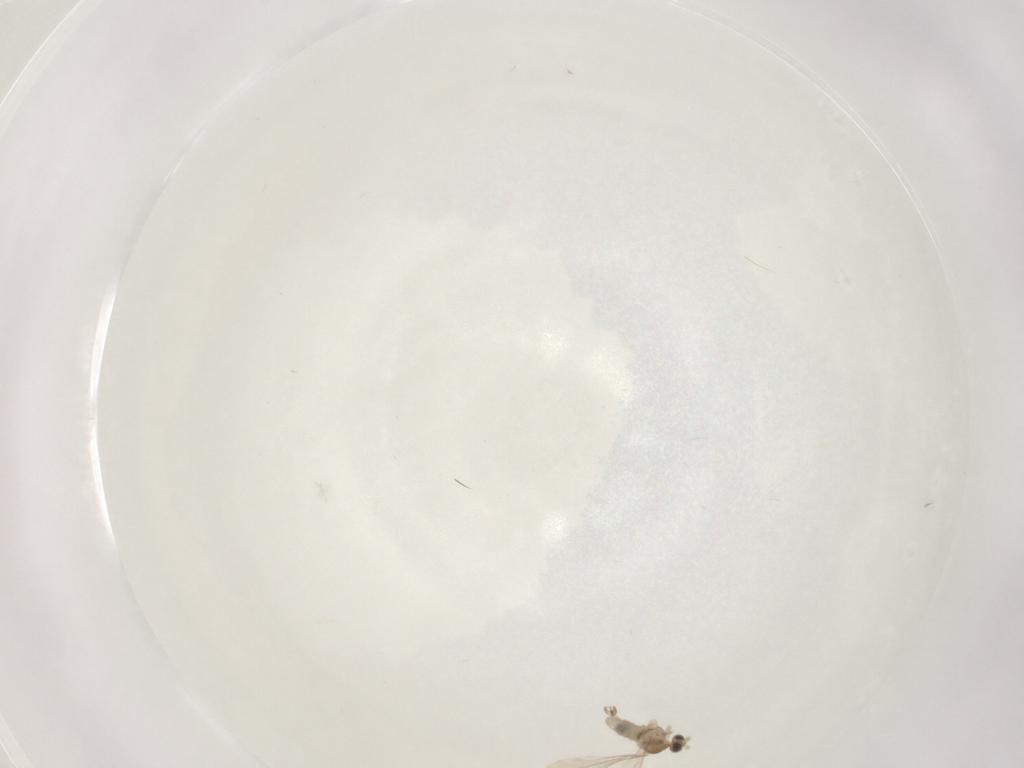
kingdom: Animalia
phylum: Arthropoda
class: Insecta
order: Diptera
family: Cecidomyiidae
